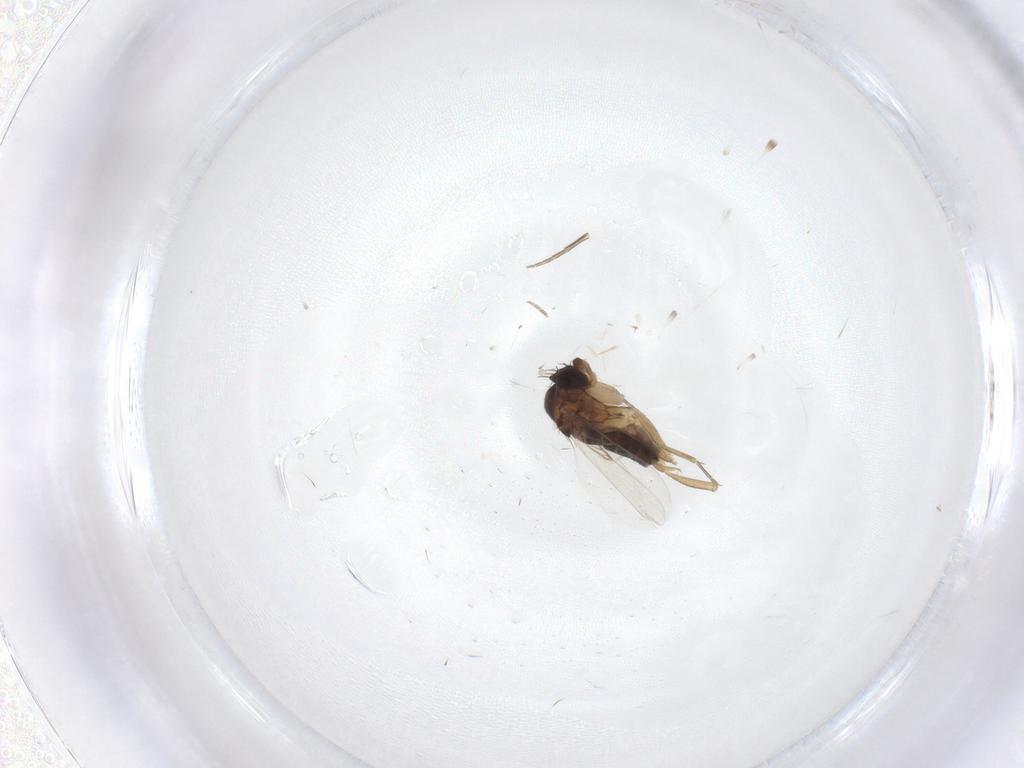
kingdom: Animalia
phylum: Arthropoda
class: Insecta
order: Diptera
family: Phoridae
